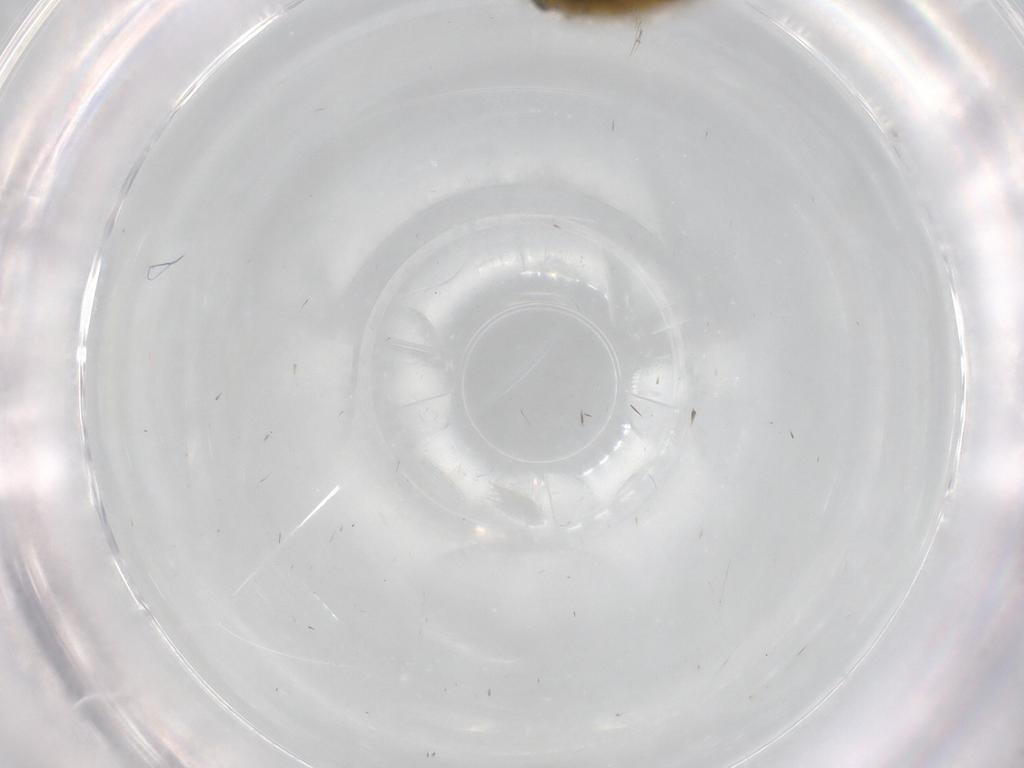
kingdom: Animalia
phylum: Arthropoda
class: Insecta
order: Hemiptera
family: Cicadellidae
